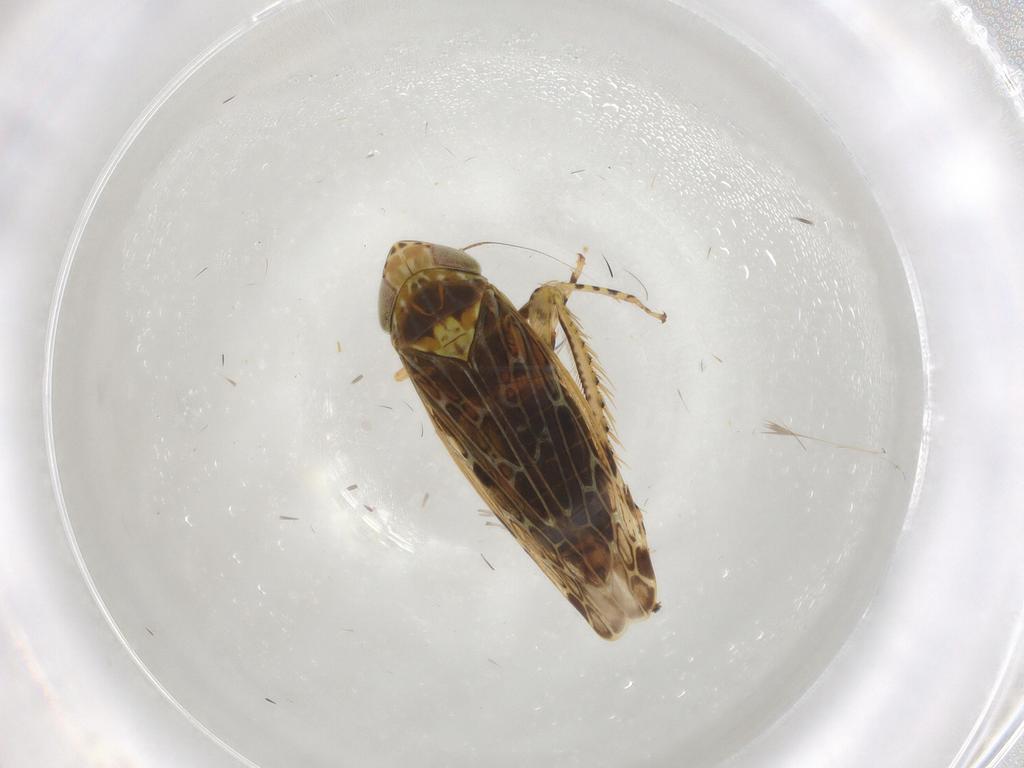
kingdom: Animalia
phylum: Arthropoda
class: Insecta
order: Hemiptera
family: Cicadellidae
